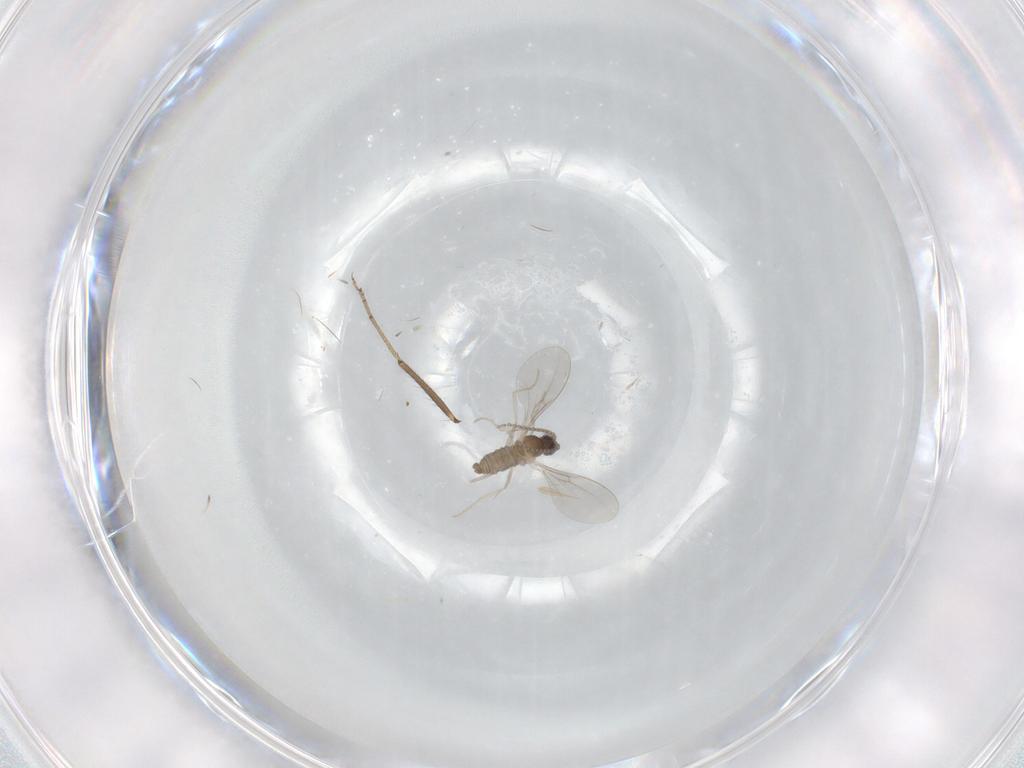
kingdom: Animalia
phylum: Arthropoda
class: Insecta
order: Diptera
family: Cecidomyiidae
